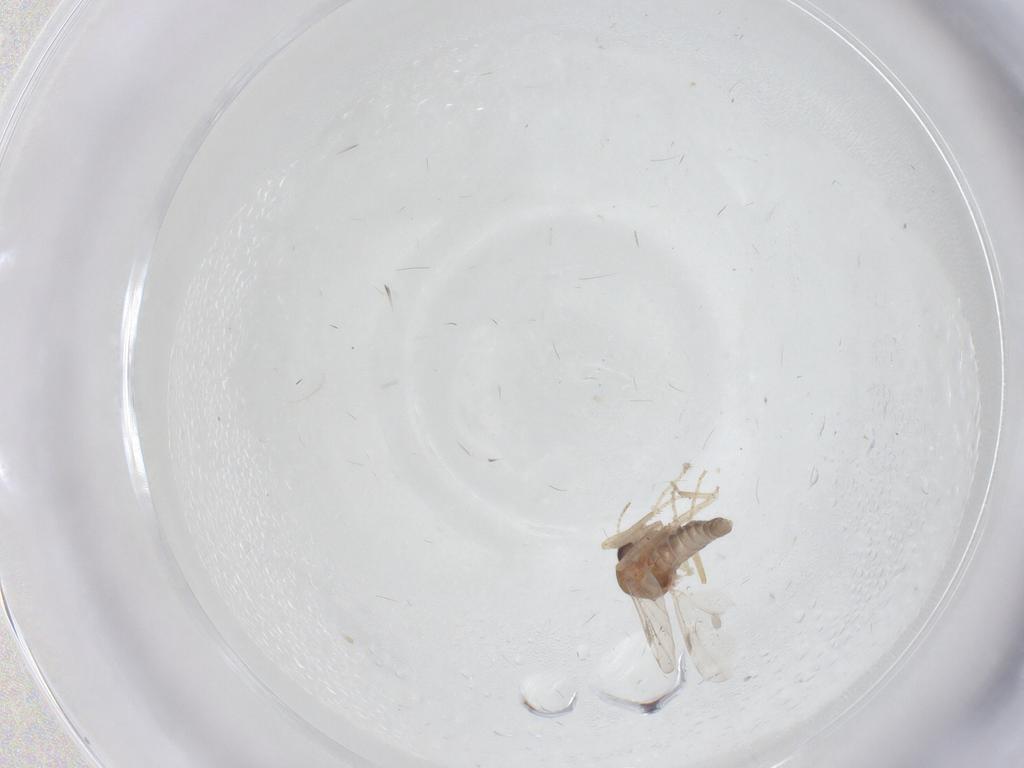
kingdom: Animalia
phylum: Arthropoda
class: Insecta
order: Diptera
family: Ceratopogonidae
